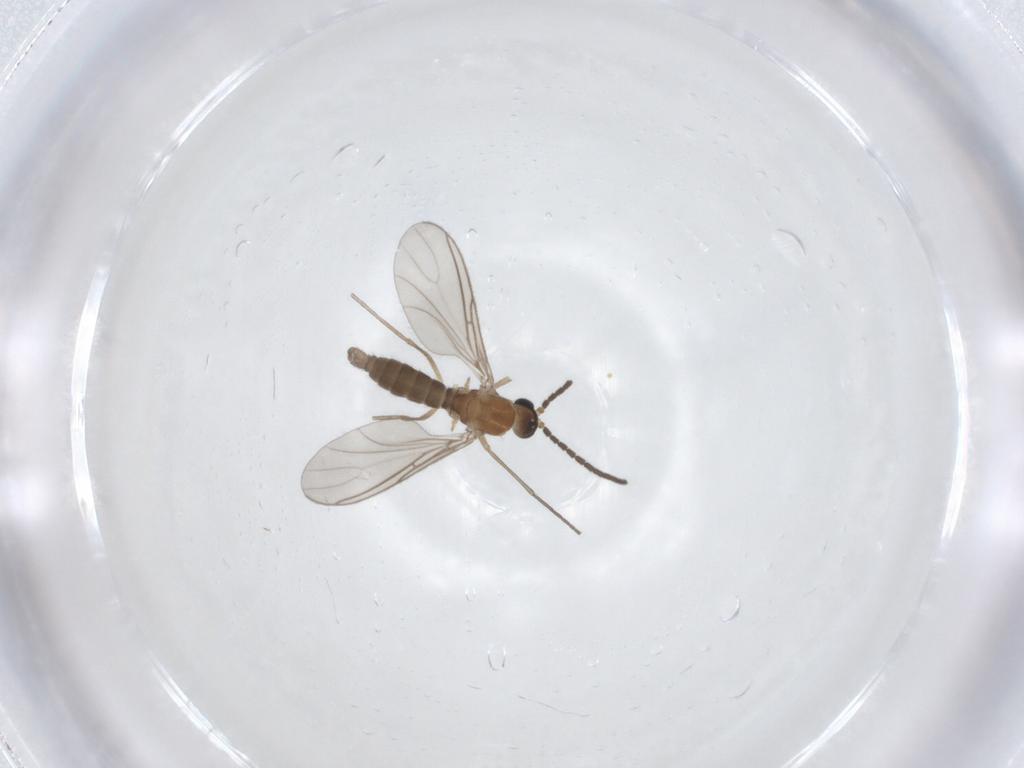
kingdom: Animalia
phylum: Arthropoda
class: Insecta
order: Diptera
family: Sciaridae
